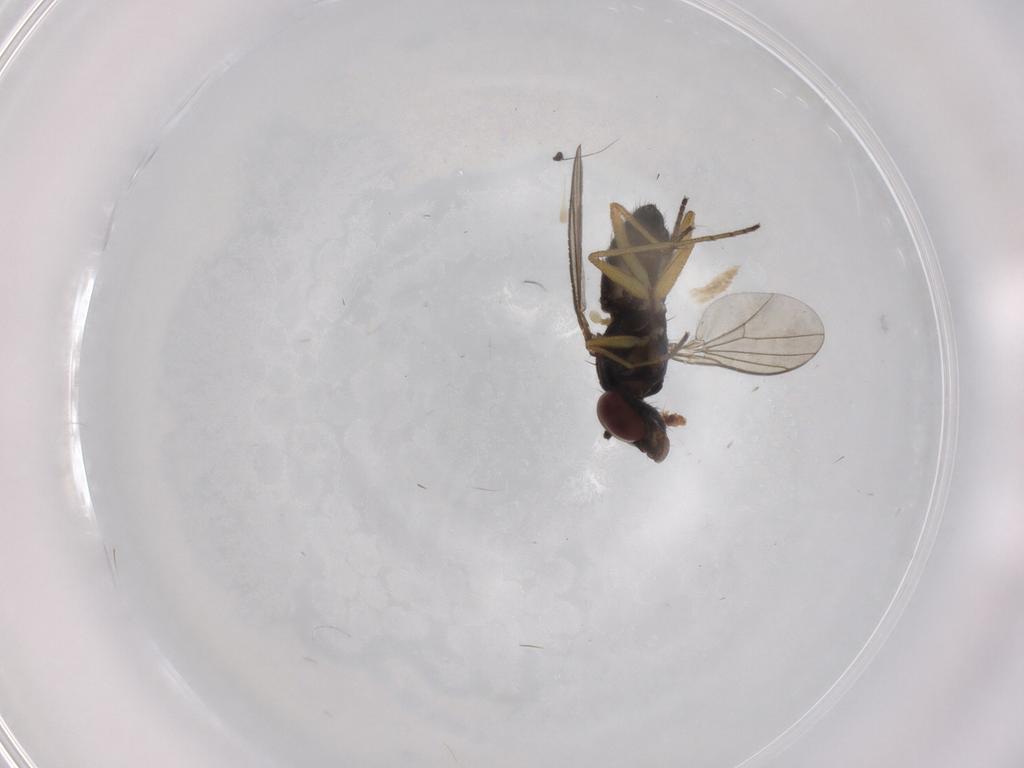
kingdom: Animalia
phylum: Arthropoda
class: Insecta
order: Diptera
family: Dolichopodidae
